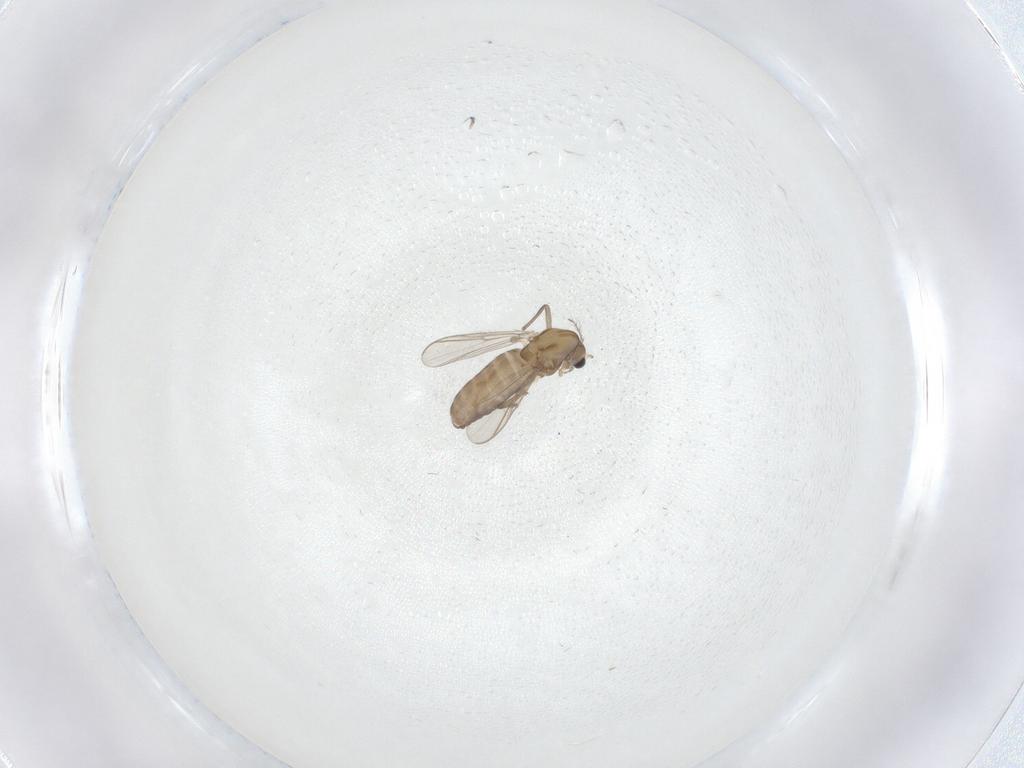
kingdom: Animalia
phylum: Arthropoda
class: Insecta
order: Diptera
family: Chironomidae
